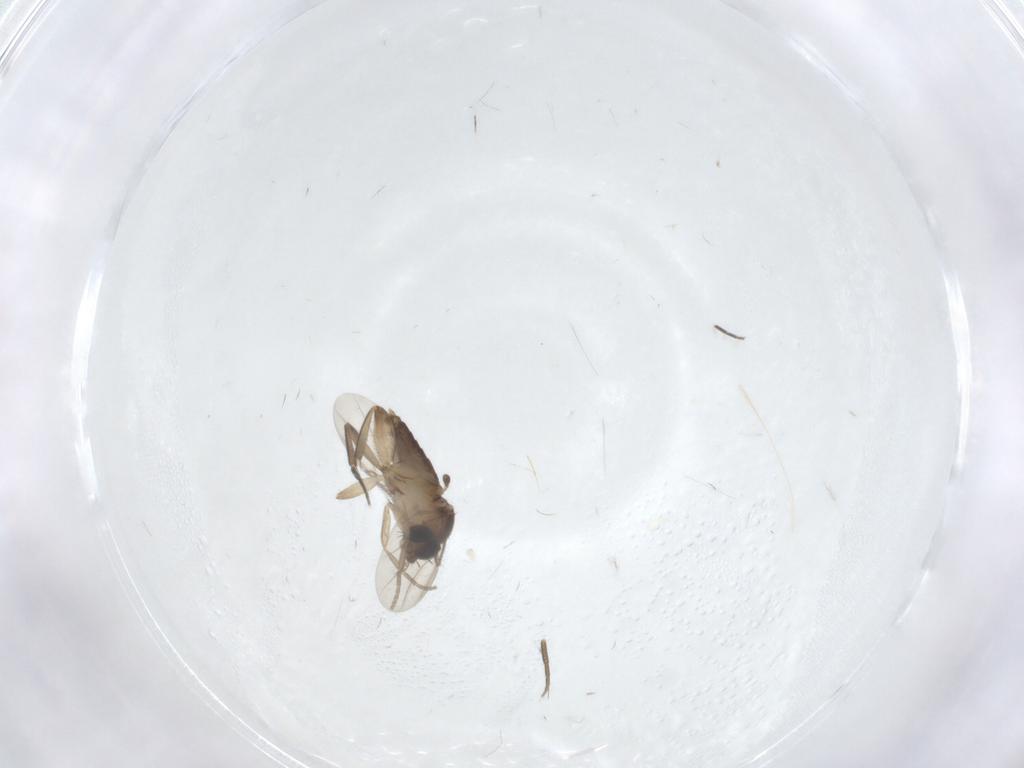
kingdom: Animalia
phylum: Arthropoda
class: Insecta
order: Diptera
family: Phoridae
